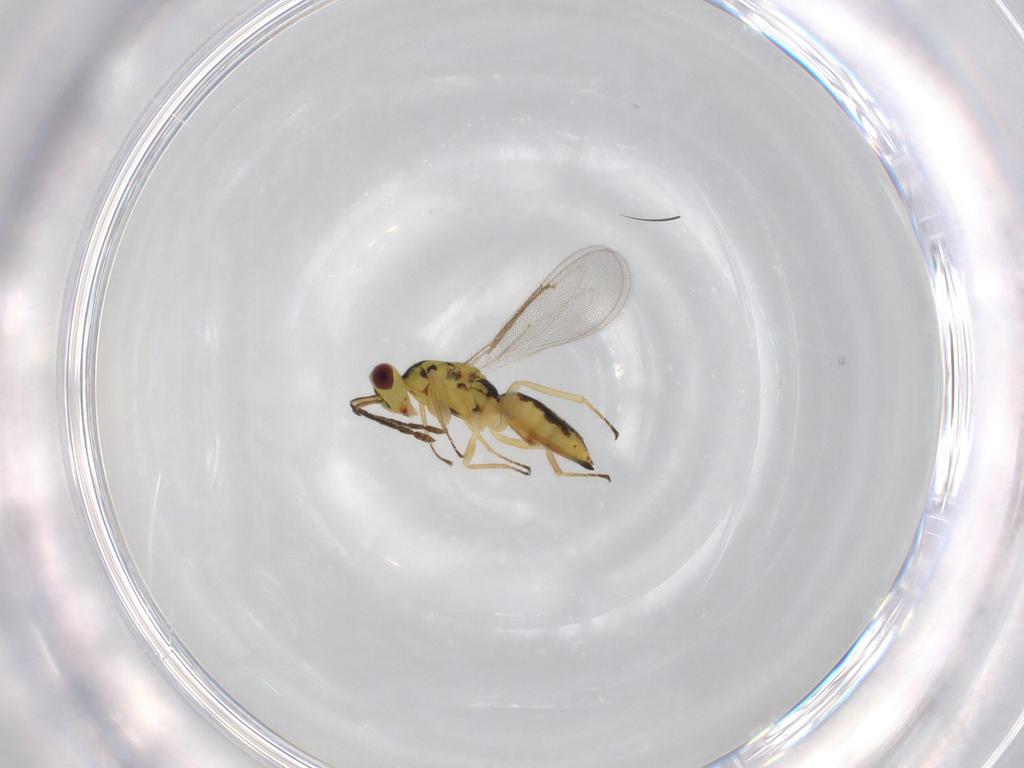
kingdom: Animalia
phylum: Arthropoda
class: Insecta
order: Hymenoptera
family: Eulophidae
